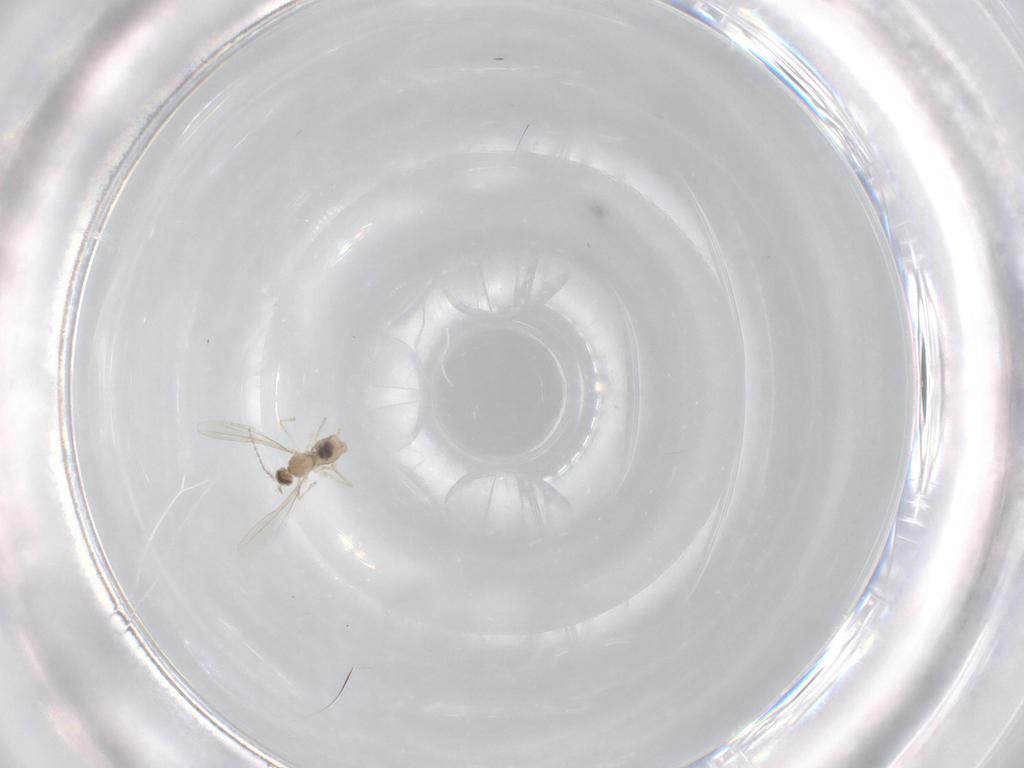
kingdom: Animalia
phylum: Arthropoda
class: Insecta
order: Diptera
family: Cecidomyiidae
